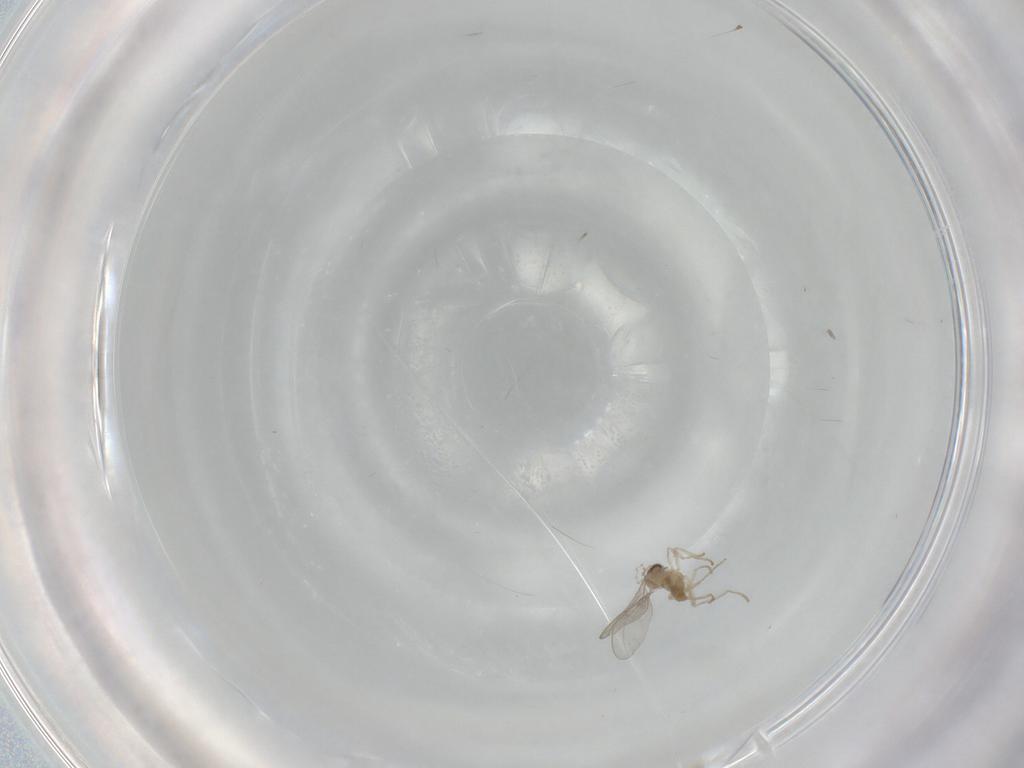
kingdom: Animalia
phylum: Arthropoda
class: Insecta
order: Diptera
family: Cecidomyiidae
